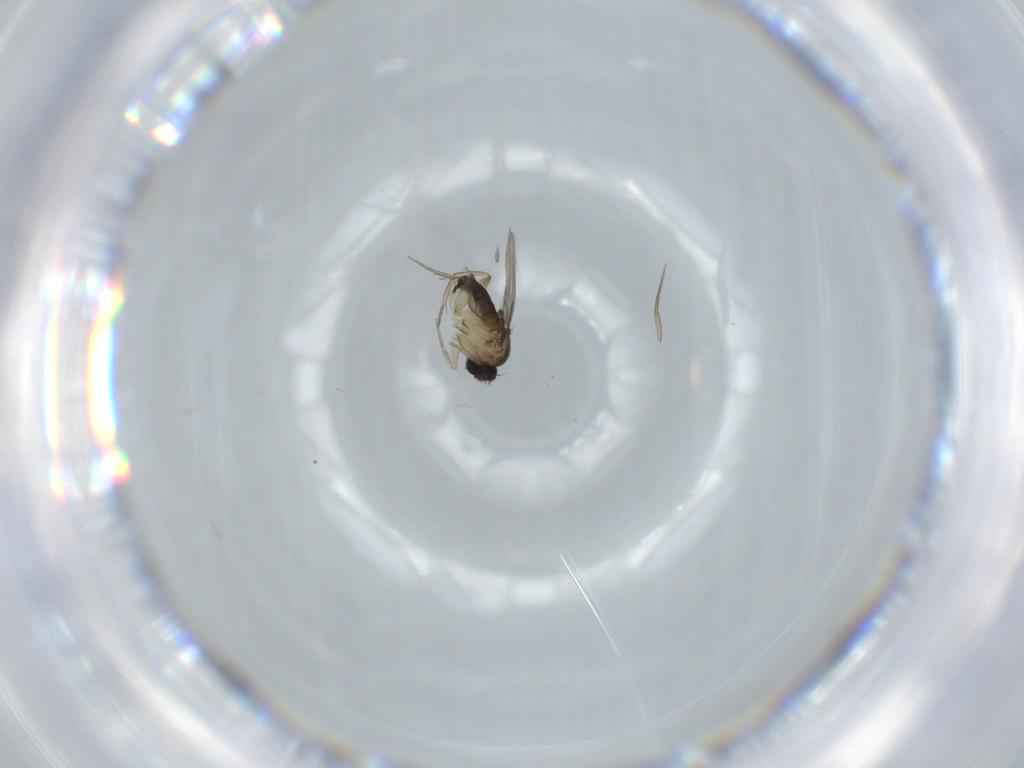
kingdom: Animalia
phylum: Arthropoda
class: Insecta
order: Diptera
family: Phoridae
